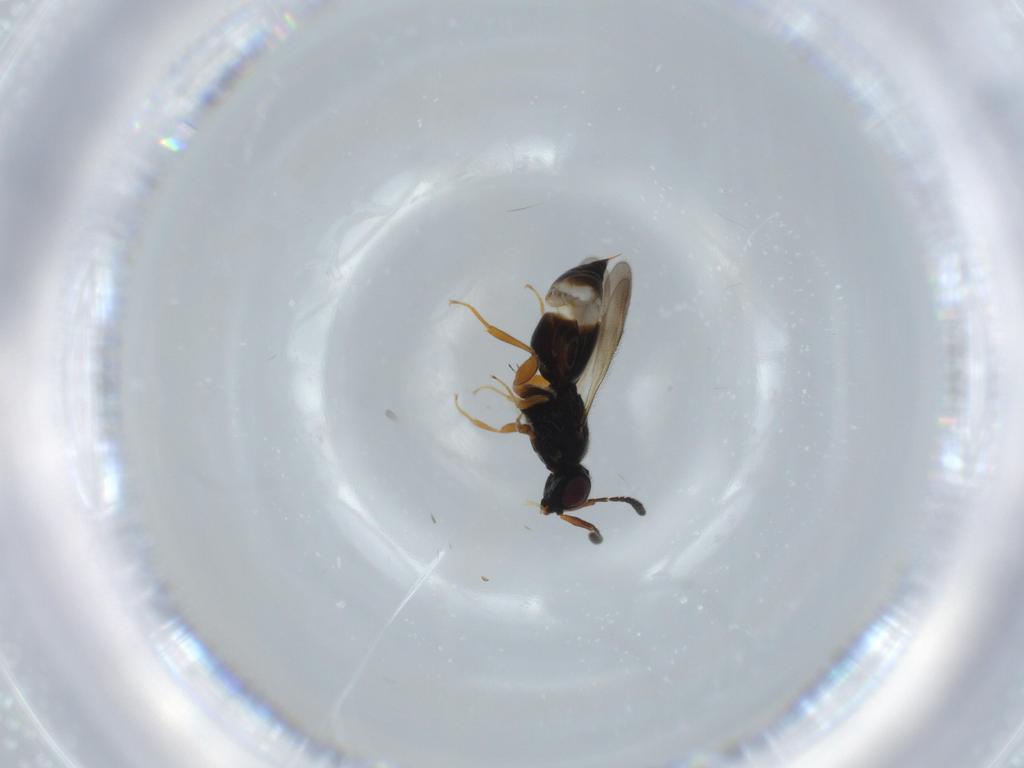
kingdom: Animalia
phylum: Arthropoda
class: Insecta
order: Hymenoptera
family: Ceraphronidae
